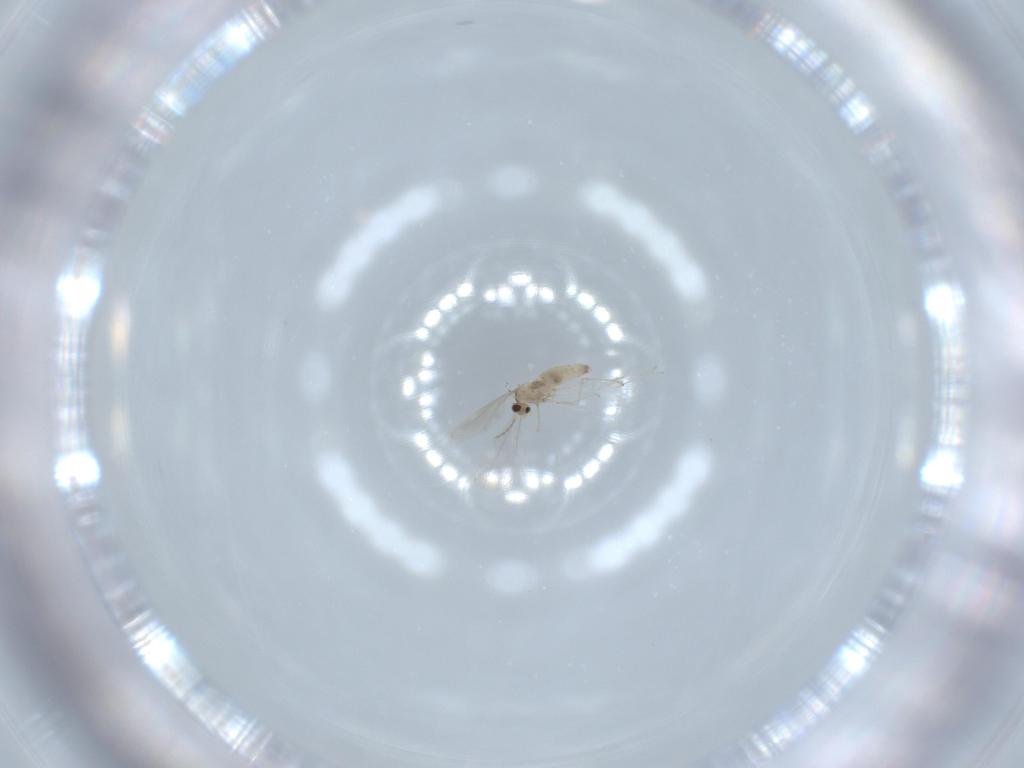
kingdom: Animalia
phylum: Arthropoda
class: Insecta
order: Diptera
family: Cecidomyiidae
